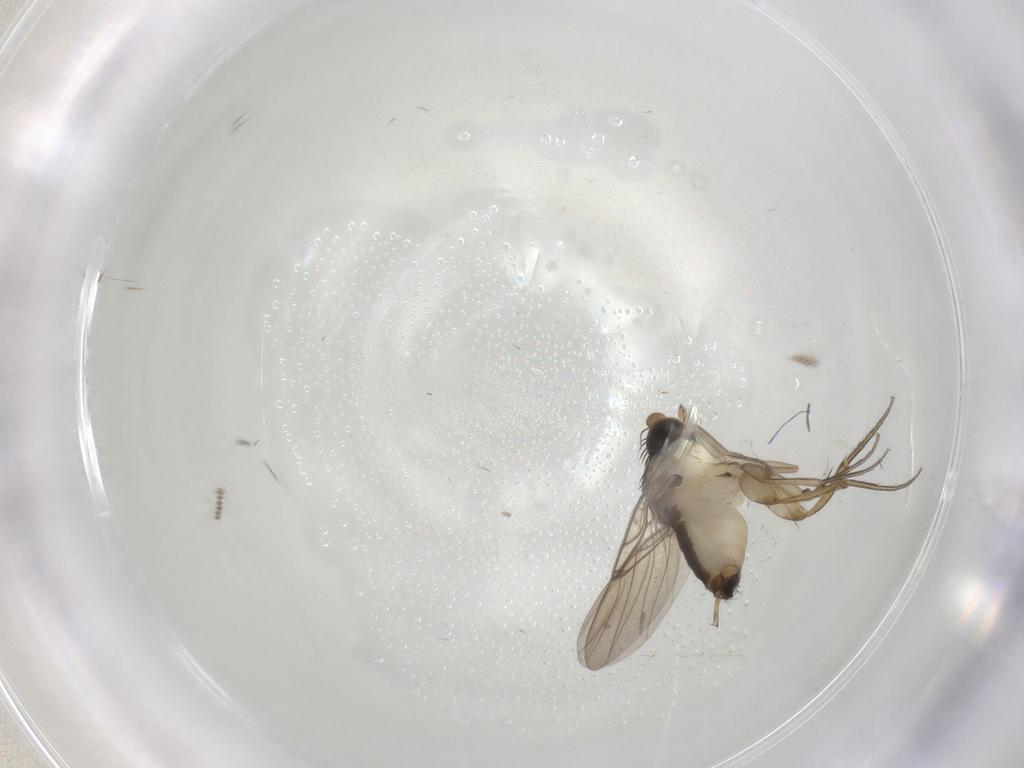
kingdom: Animalia
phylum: Arthropoda
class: Insecta
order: Diptera
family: Phoridae
